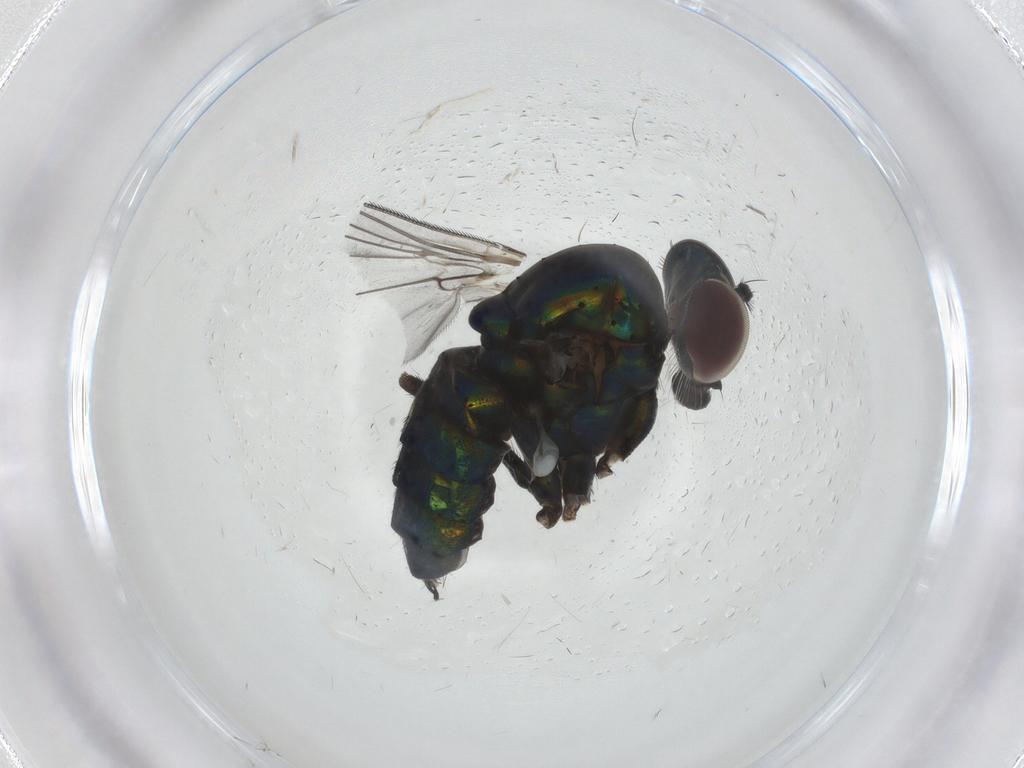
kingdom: Animalia
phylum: Arthropoda
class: Insecta
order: Diptera
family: Dolichopodidae
